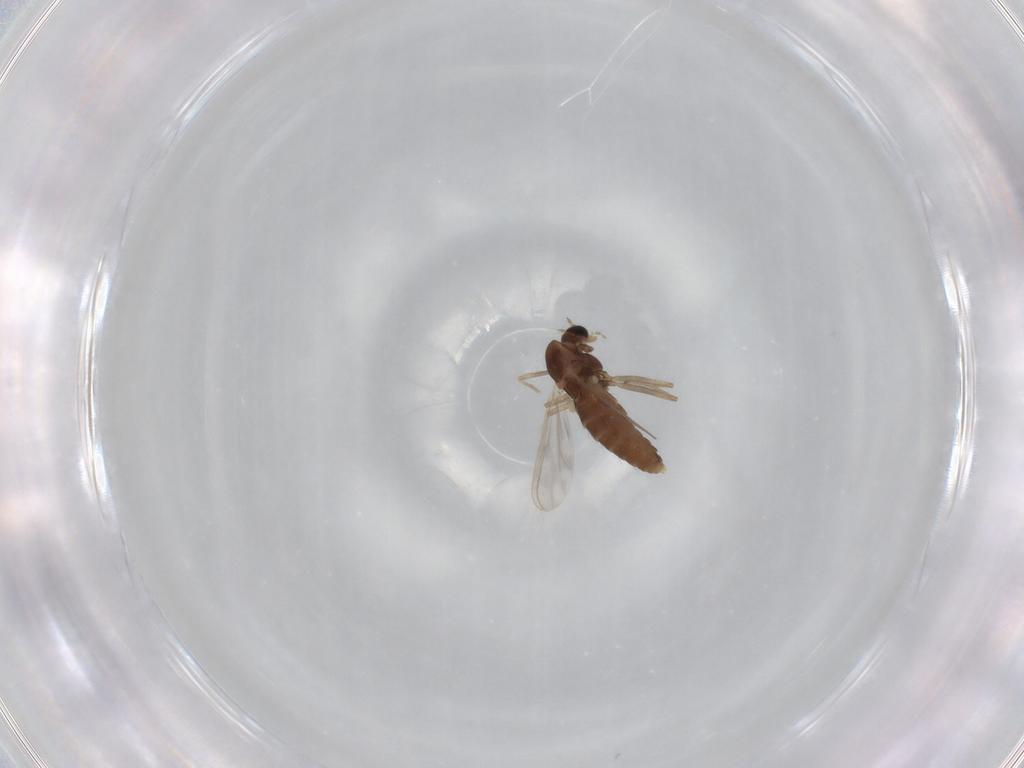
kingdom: Animalia
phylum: Arthropoda
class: Insecta
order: Diptera
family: Chironomidae
